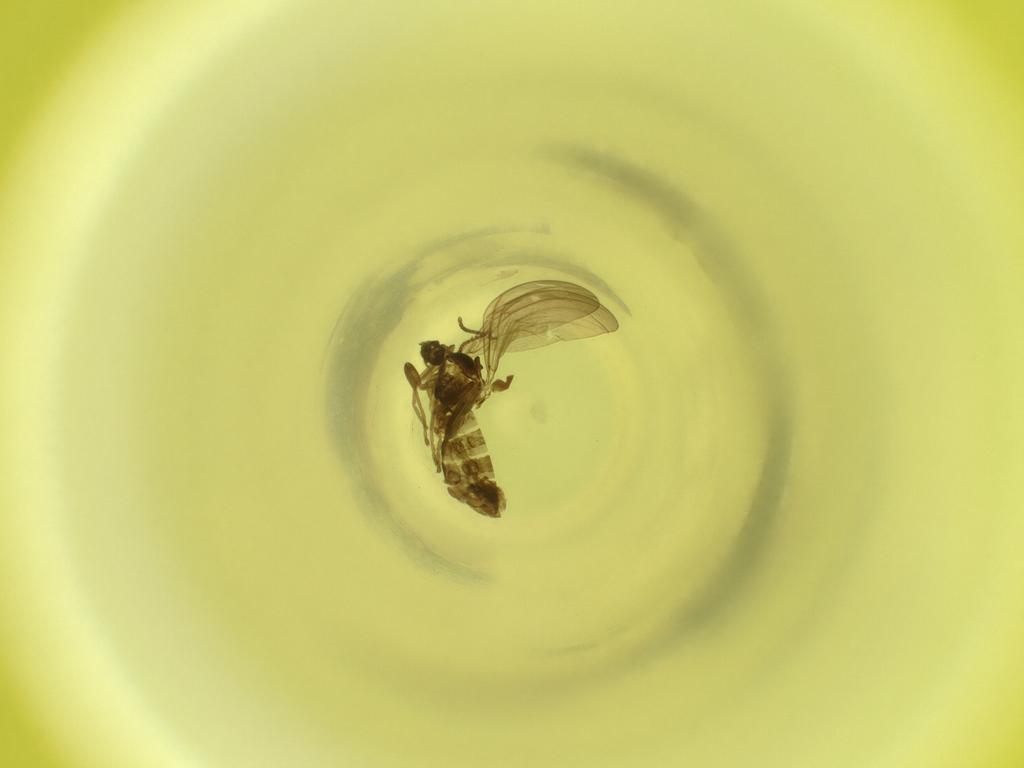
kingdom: Animalia
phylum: Arthropoda
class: Insecta
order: Diptera
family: Cecidomyiidae
